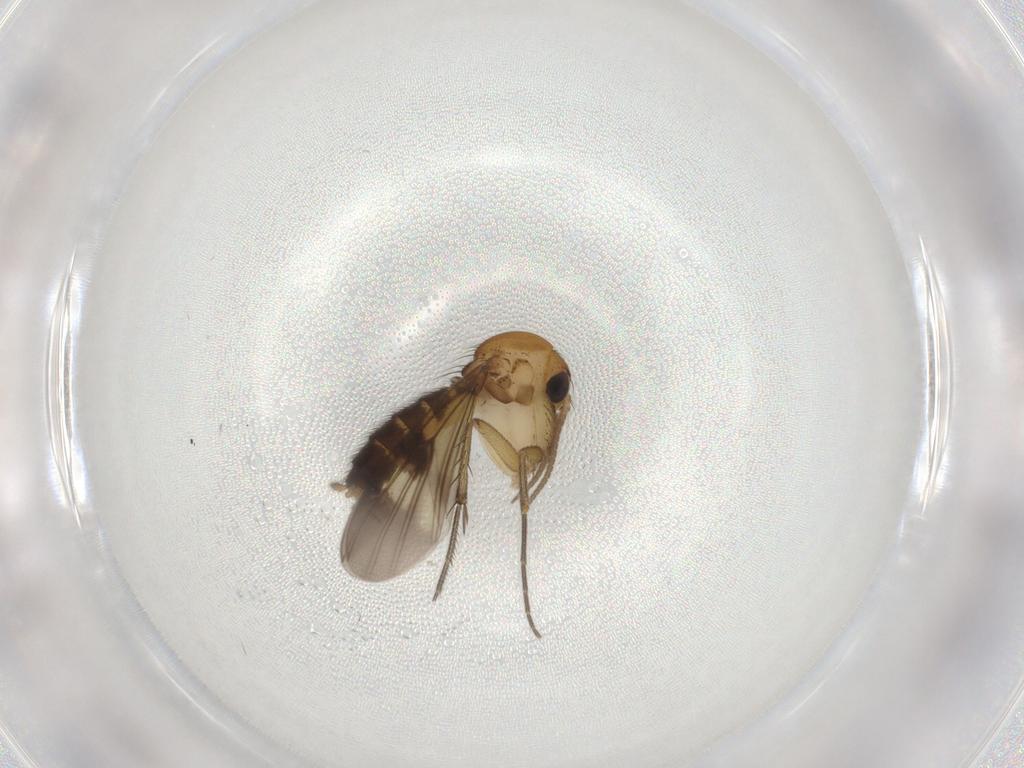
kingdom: Animalia
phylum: Arthropoda
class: Insecta
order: Diptera
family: Mycetophilidae
